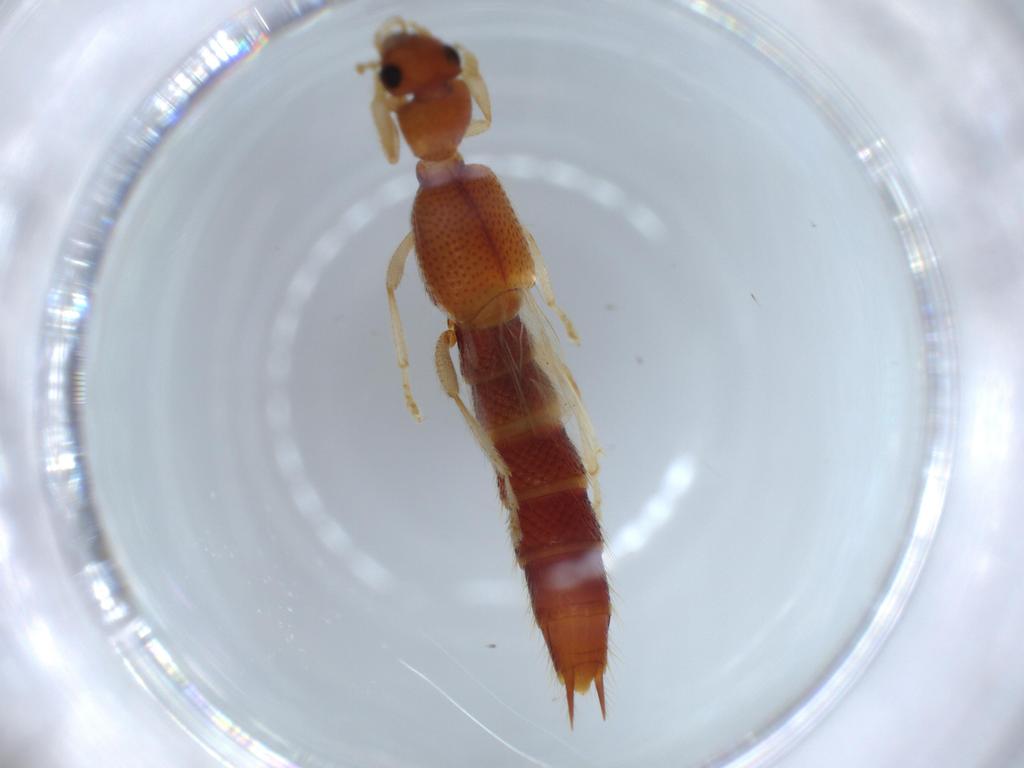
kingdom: Animalia
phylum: Arthropoda
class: Insecta
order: Coleoptera
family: Staphylinidae
